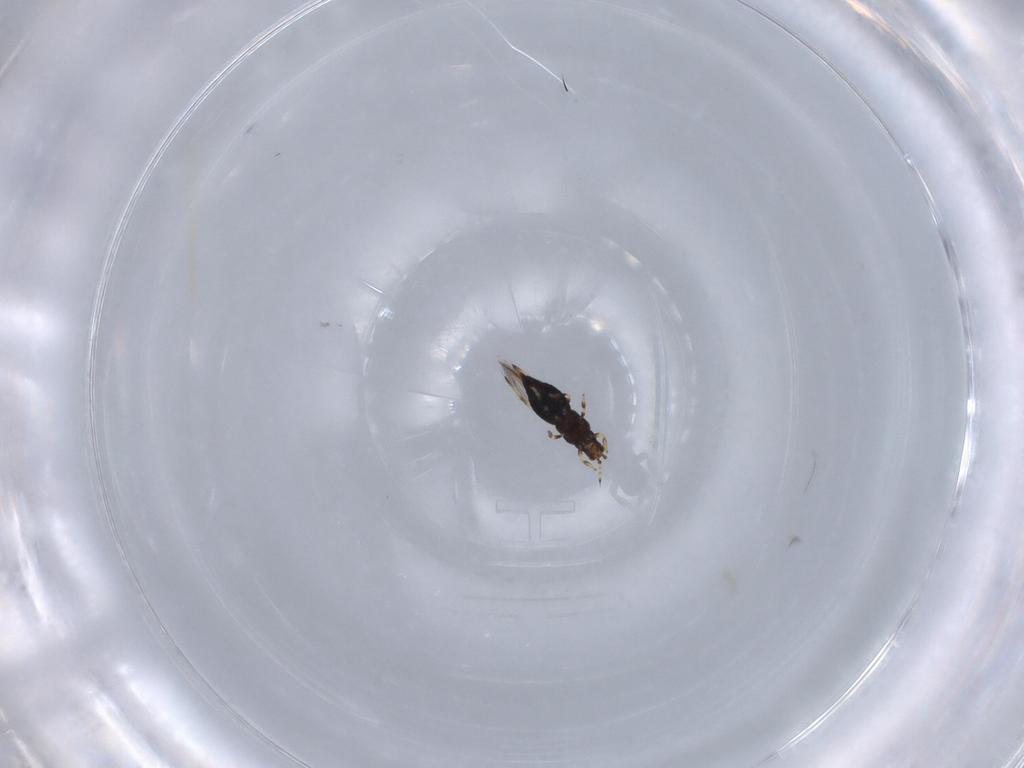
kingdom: Animalia
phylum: Arthropoda
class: Insecta
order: Thysanoptera
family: Thripidae
